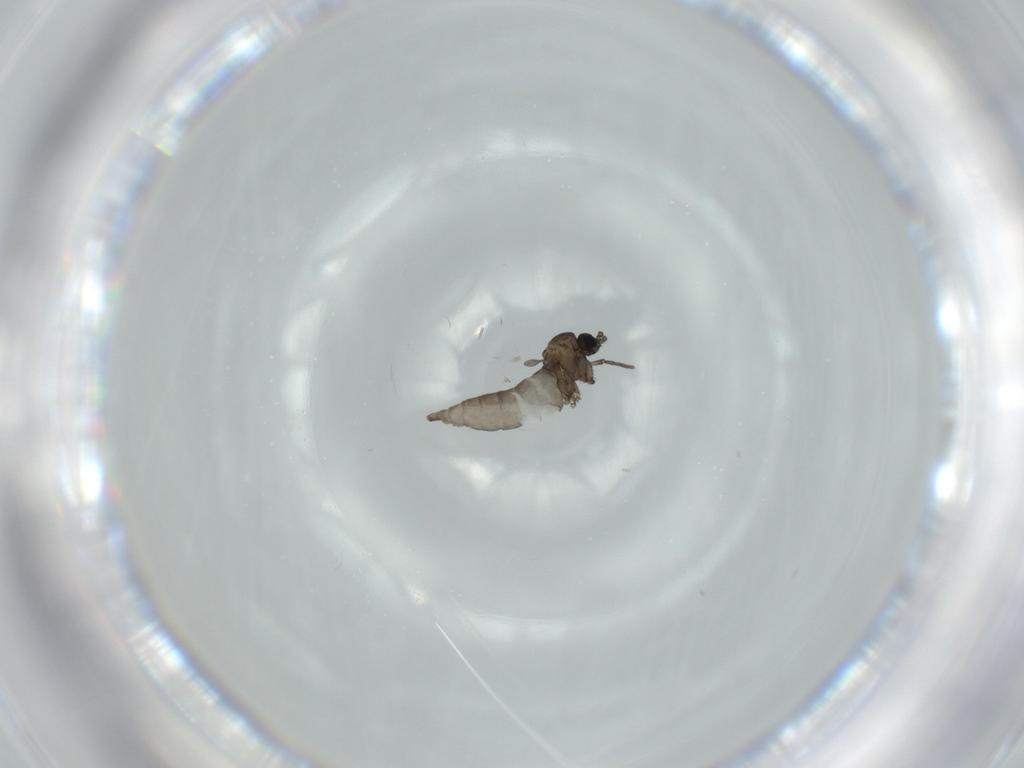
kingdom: Animalia
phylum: Arthropoda
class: Insecta
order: Diptera
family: Sciaridae
